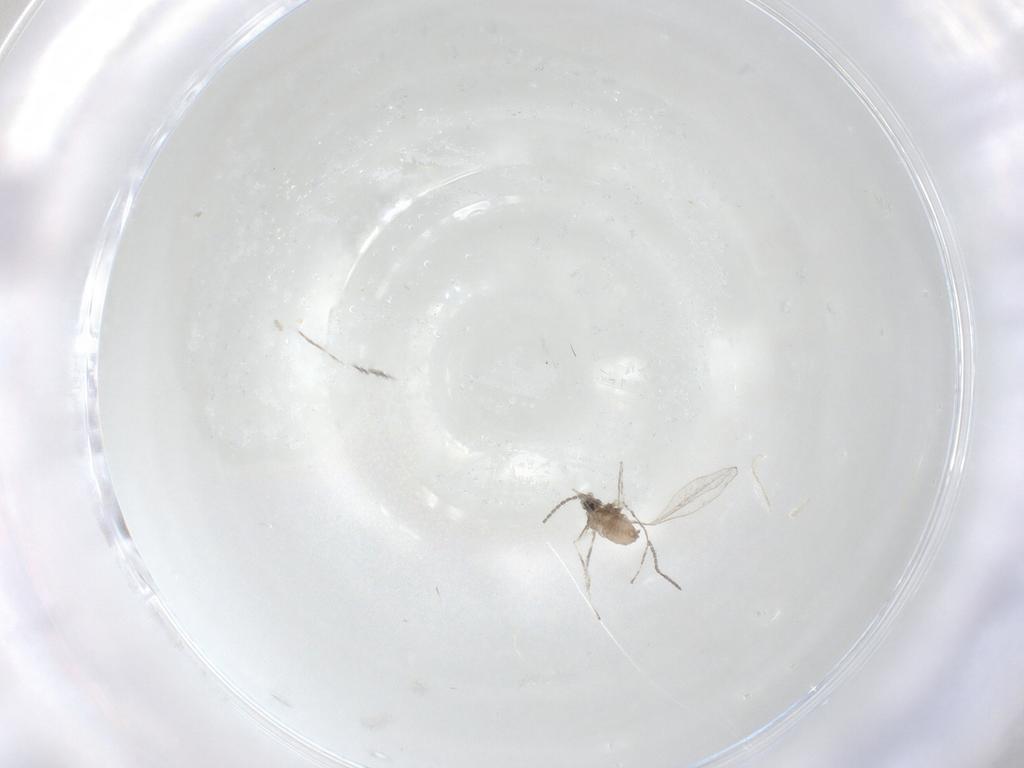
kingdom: Animalia
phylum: Arthropoda
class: Insecta
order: Diptera
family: Cecidomyiidae
